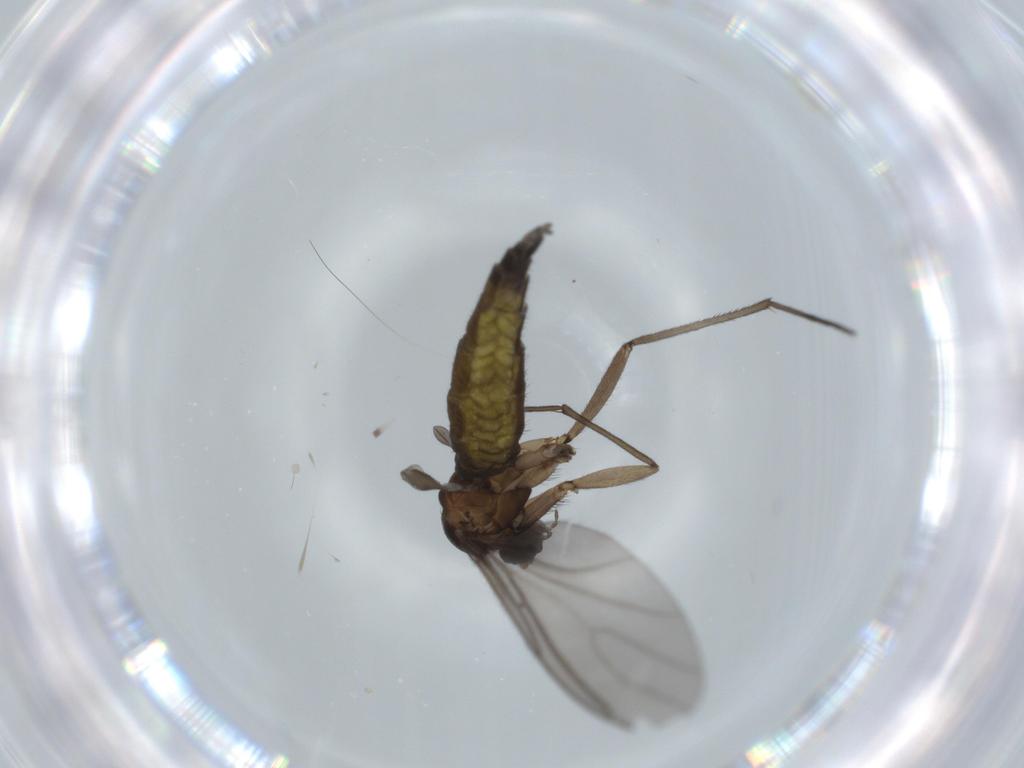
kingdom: Animalia
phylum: Arthropoda
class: Insecta
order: Diptera
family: Sciaridae
